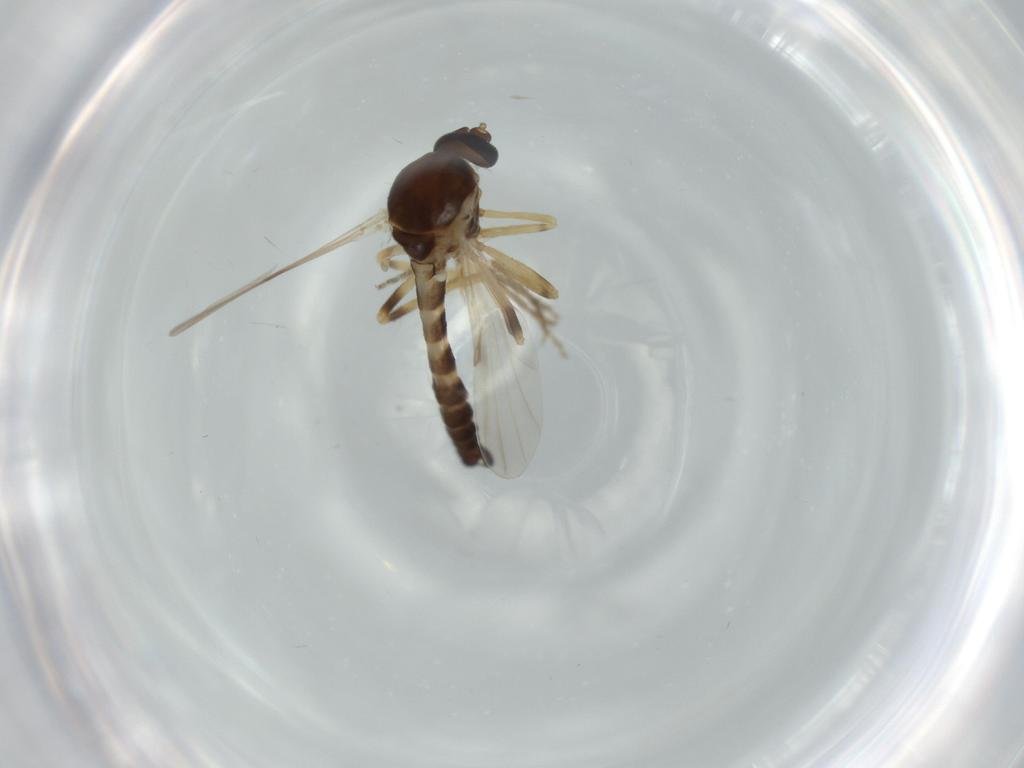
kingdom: Animalia
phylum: Arthropoda
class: Insecta
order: Diptera
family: Ceratopogonidae
